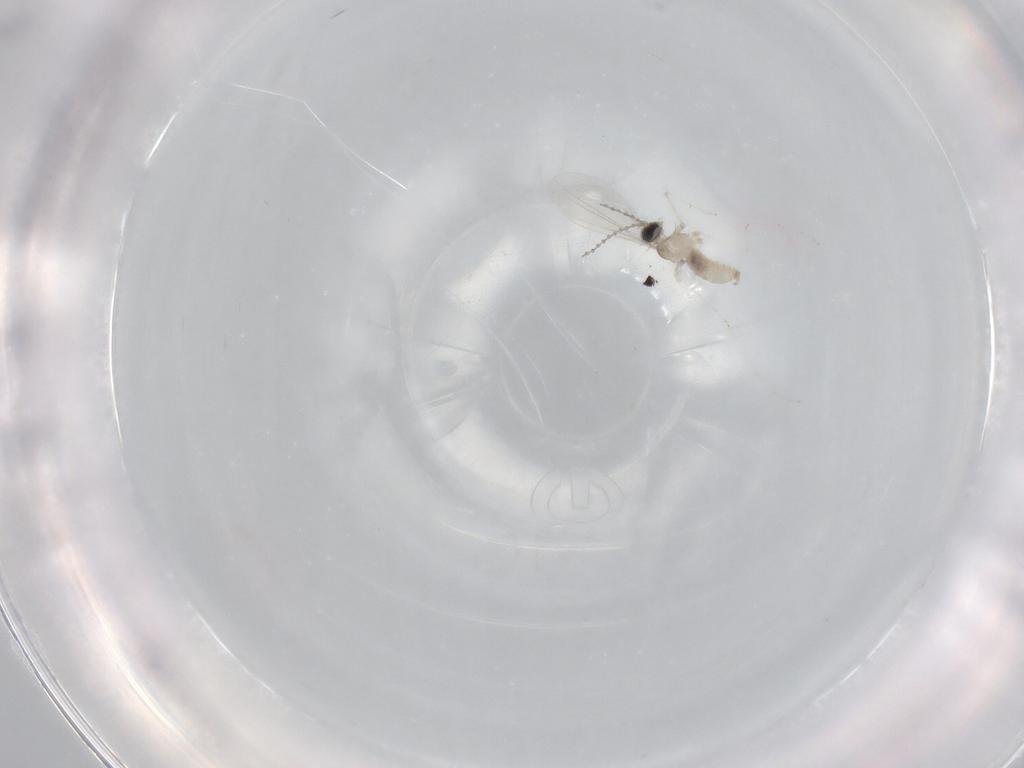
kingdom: Animalia
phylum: Arthropoda
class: Insecta
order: Diptera
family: Cecidomyiidae
